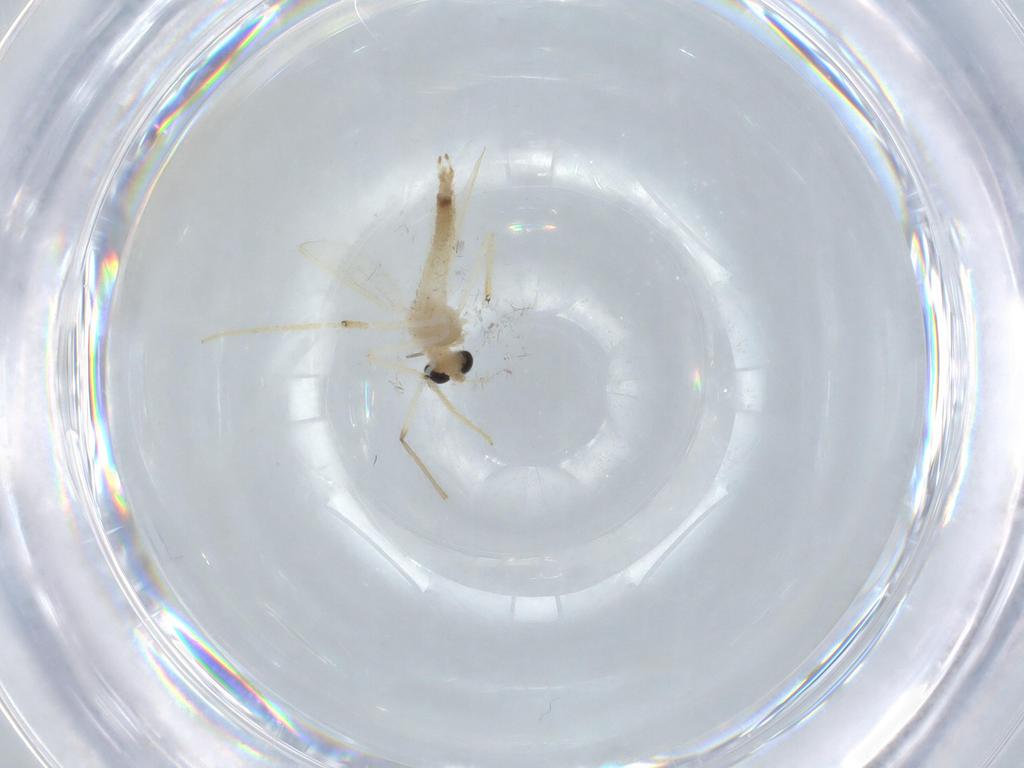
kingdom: Animalia
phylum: Arthropoda
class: Insecta
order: Diptera
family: Chironomidae
